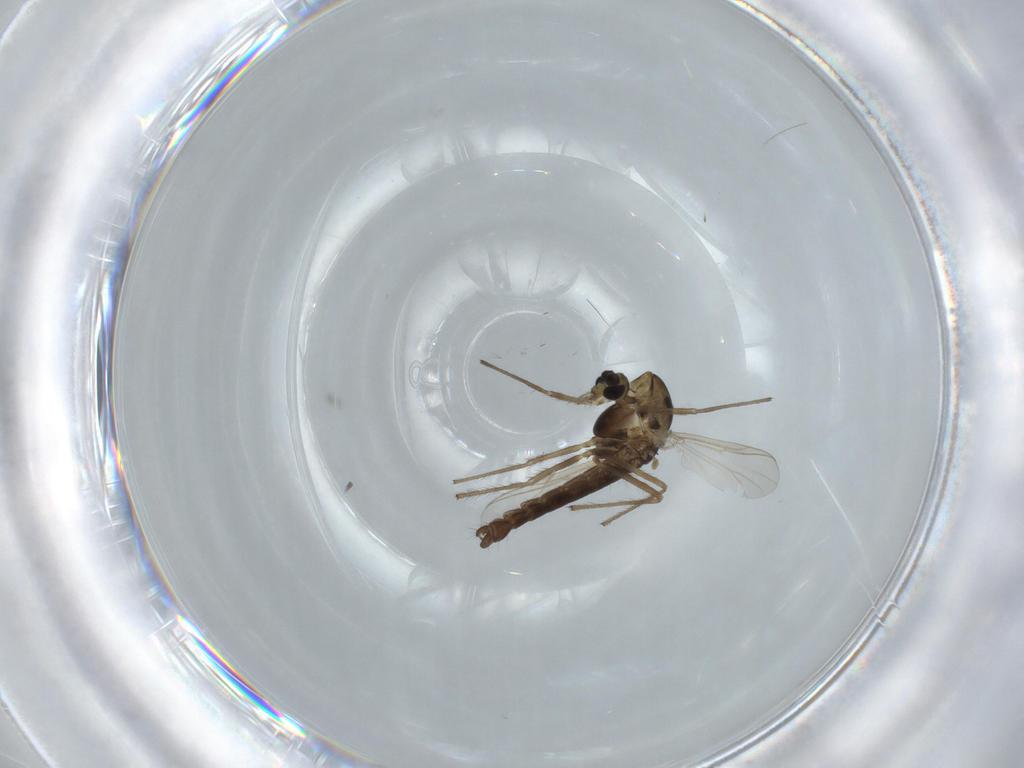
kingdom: Animalia
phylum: Arthropoda
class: Insecta
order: Diptera
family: Chironomidae
